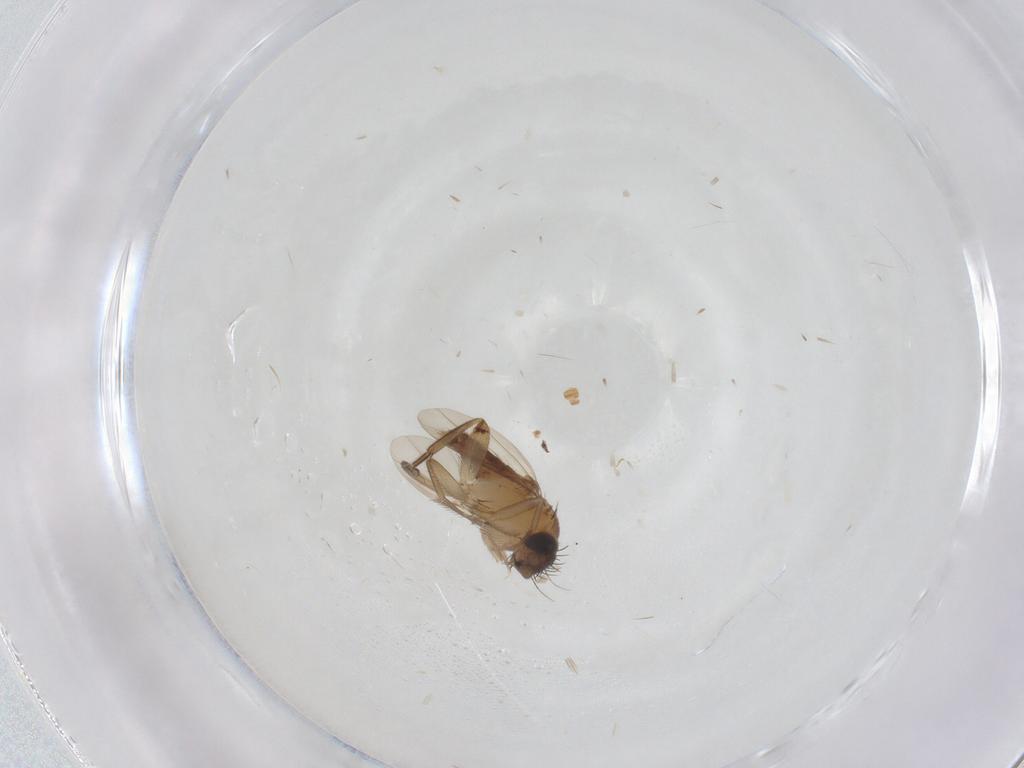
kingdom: Animalia
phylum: Arthropoda
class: Insecta
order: Diptera
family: Phoridae
